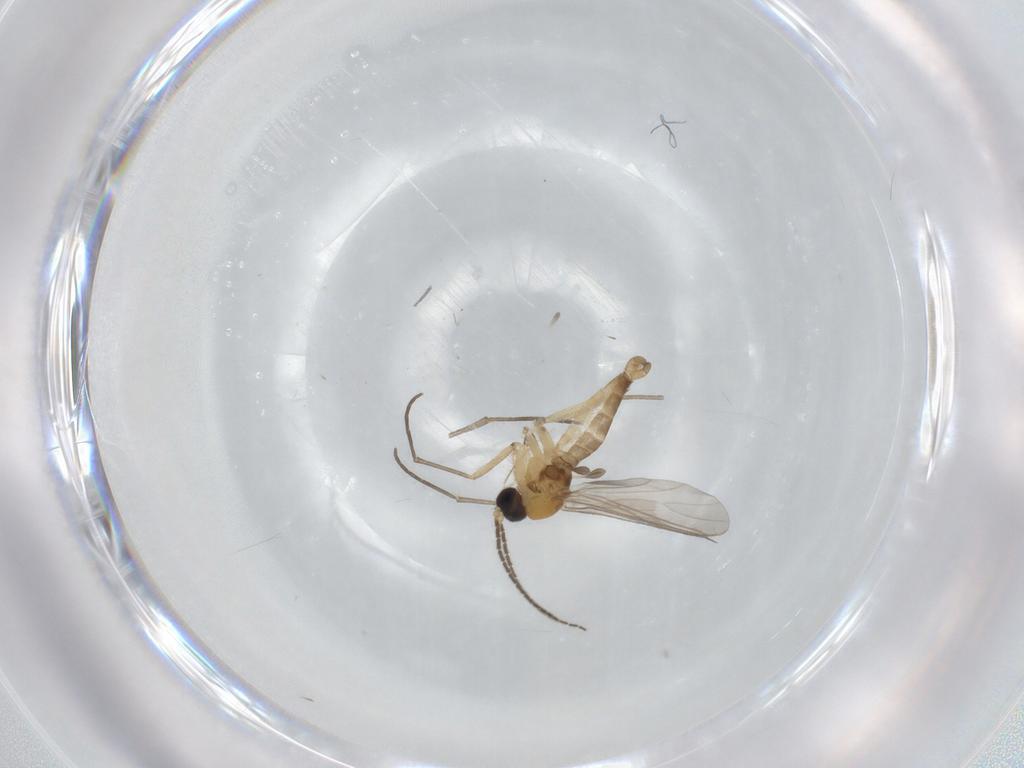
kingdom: Animalia
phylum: Arthropoda
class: Insecta
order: Diptera
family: Sciaridae
